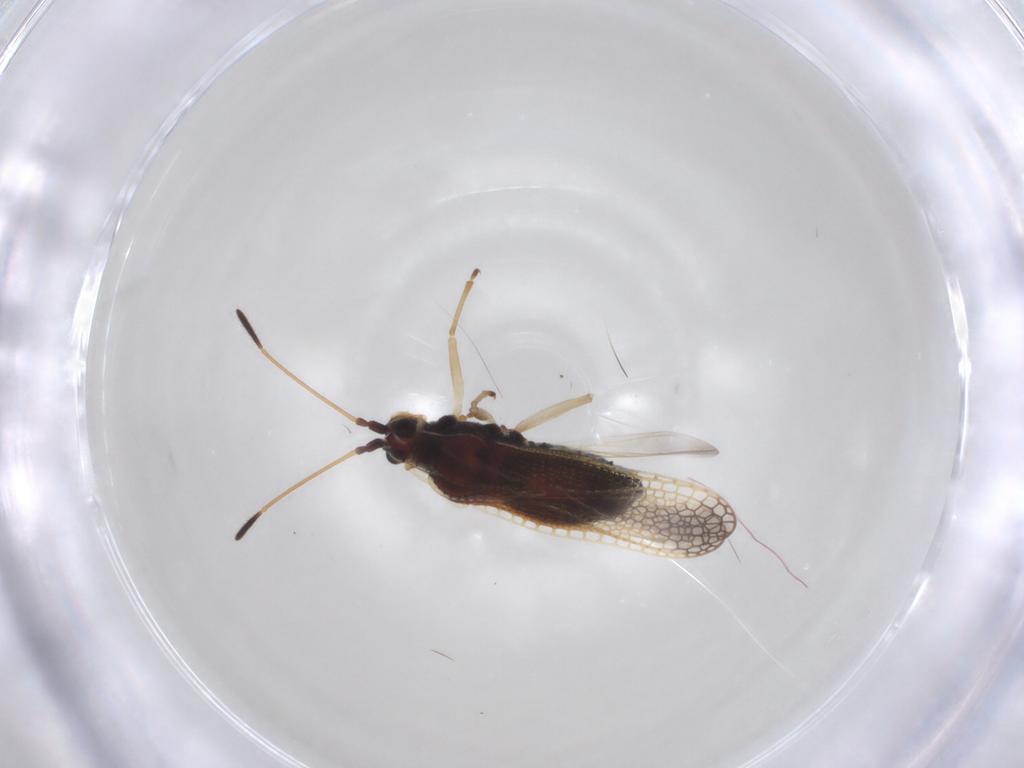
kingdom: Animalia
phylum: Arthropoda
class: Insecta
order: Hemiptera
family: Tingidae
